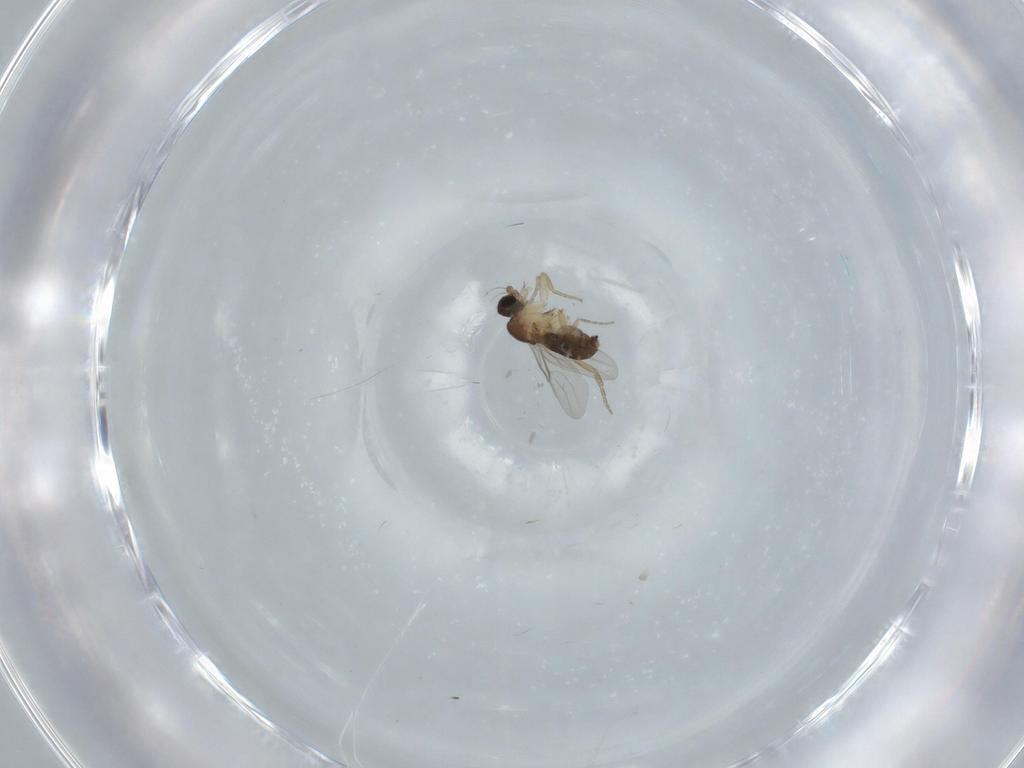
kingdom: Animalia
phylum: Arthropoda
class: Insecta
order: Diptera
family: Phoridae
